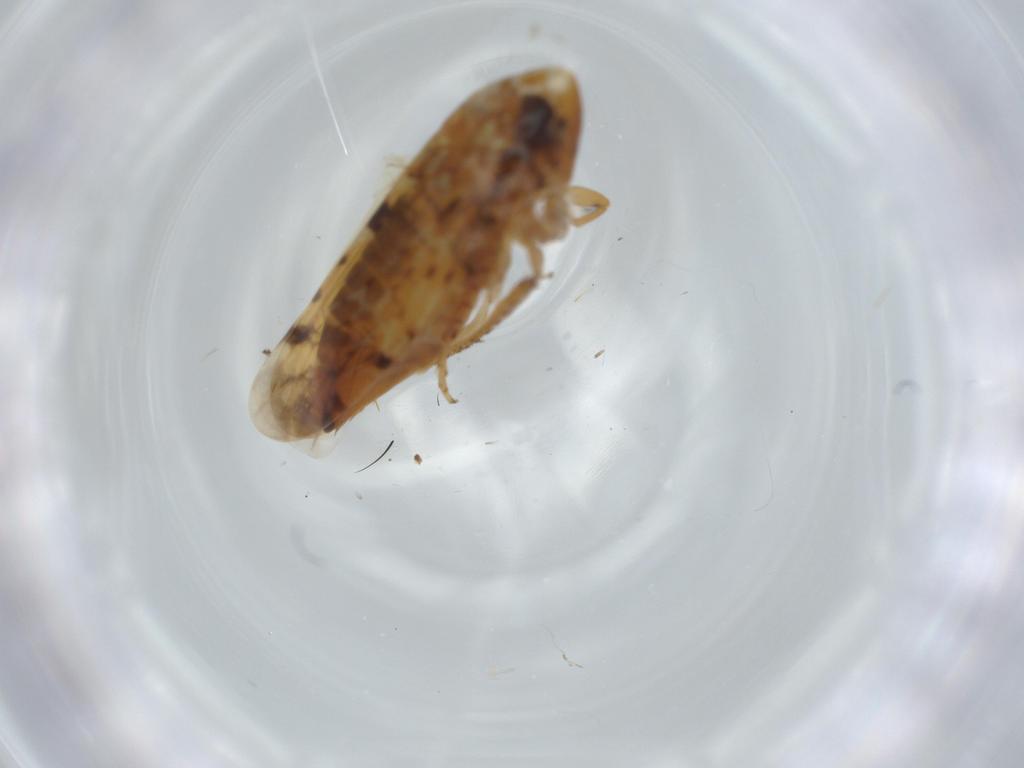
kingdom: Animalia
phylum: Arthropoda
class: Insecta
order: Hemiptera
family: Cicadellidae
